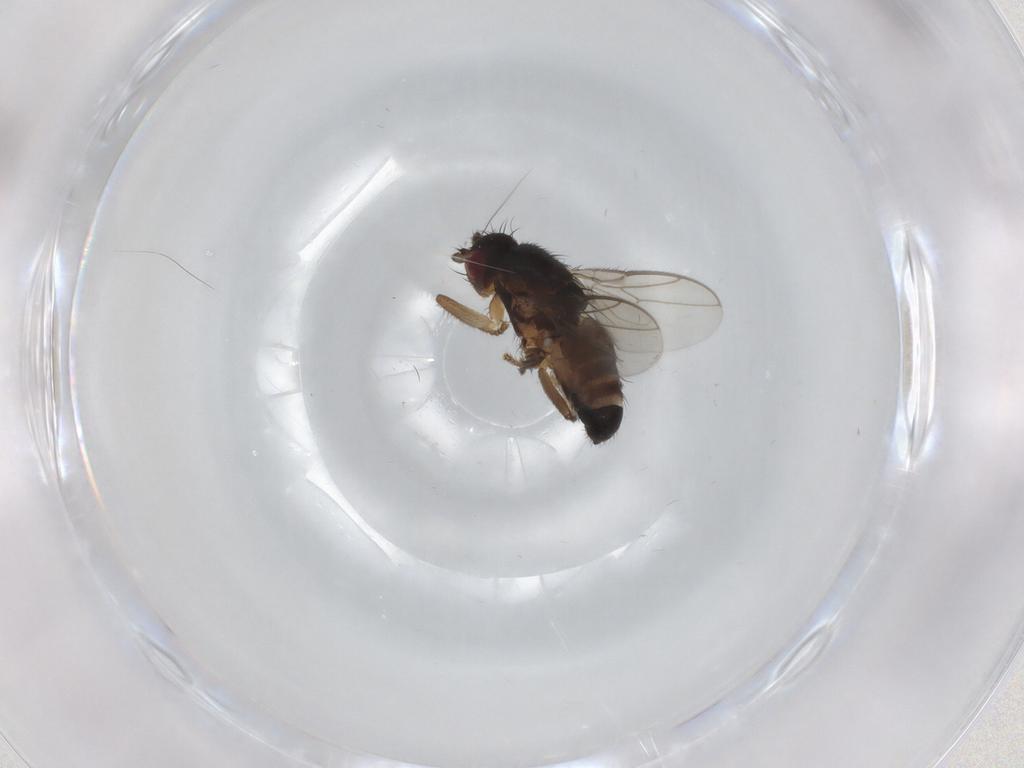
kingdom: Animalia
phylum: Arthropoda
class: Insecta
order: Diptera
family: Sphaeroceridae
